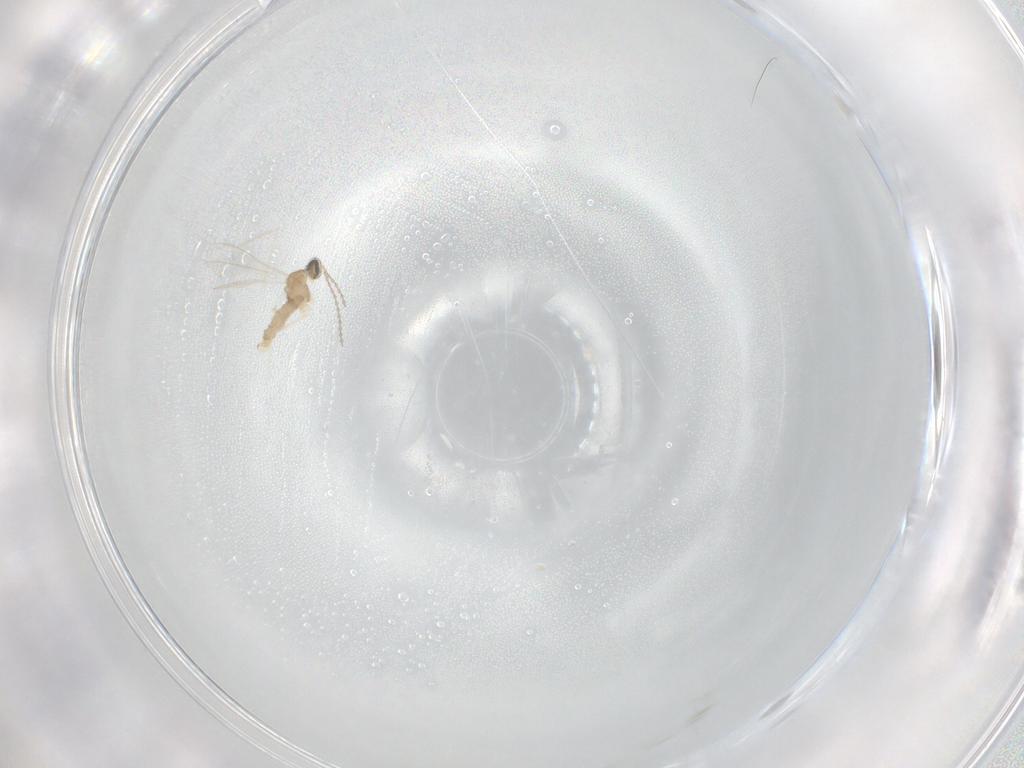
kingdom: Animalia
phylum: Arthropoda
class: Insecta
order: Diptera
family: Cecidomyiidae
